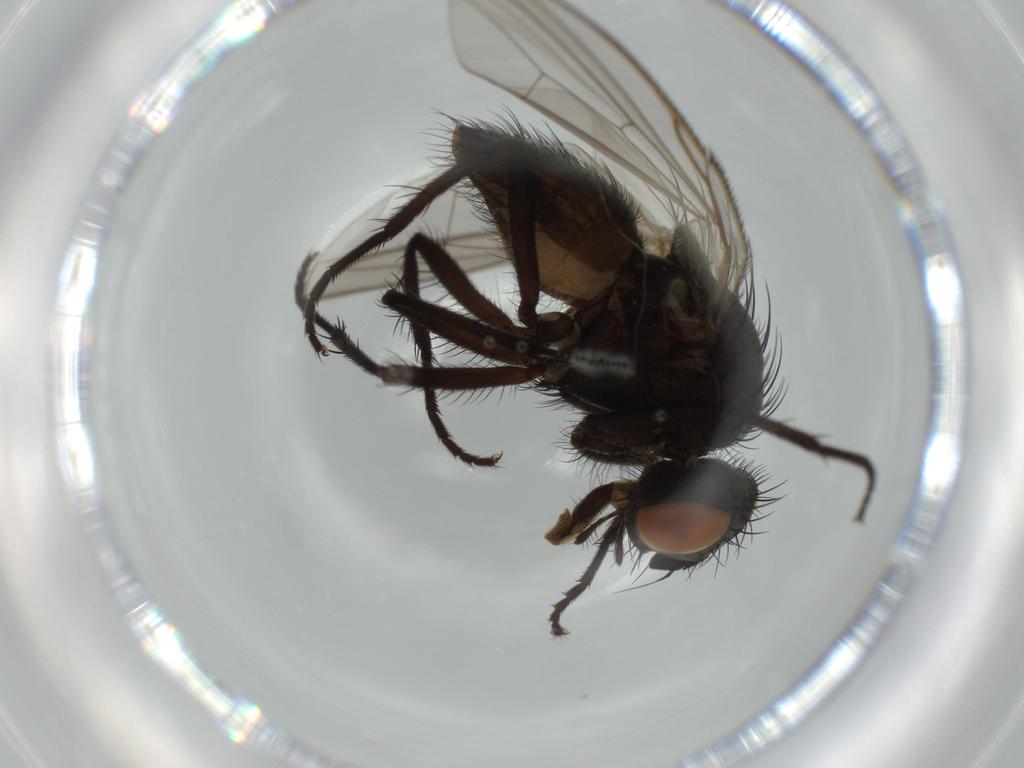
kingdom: Animalia
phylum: Arthropoda
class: Insecta
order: Diptera
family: Anthomyiidae
